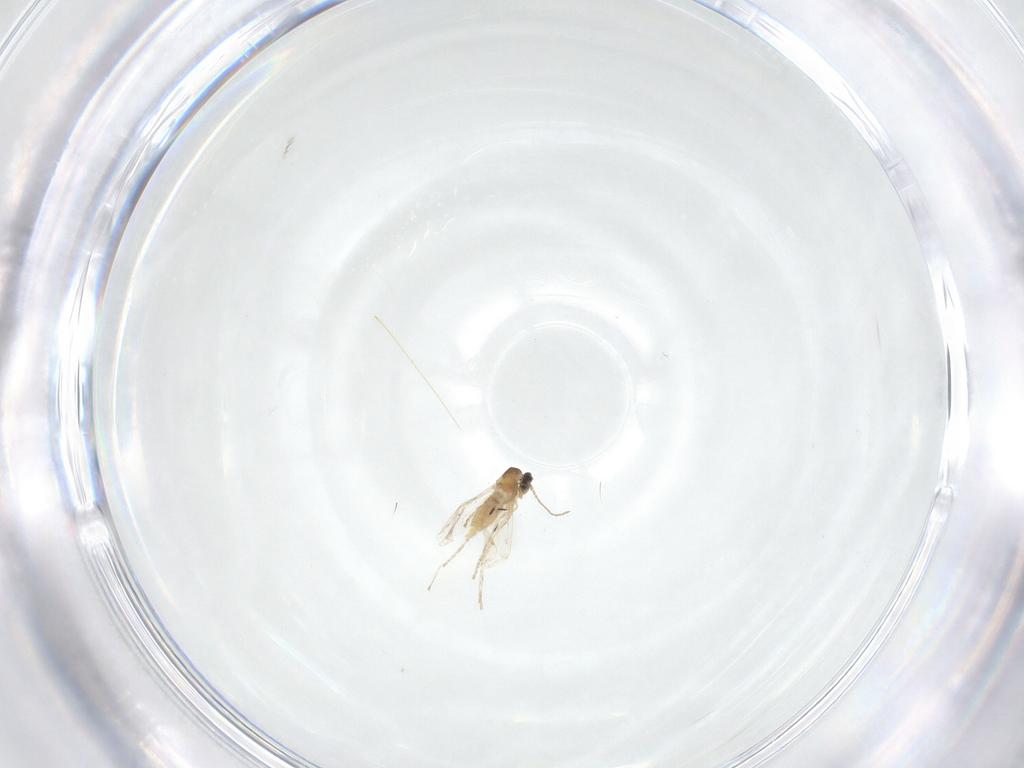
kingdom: Animalia
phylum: Arthropoda
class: Insecta
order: Diptera
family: Cecidomyiidae
